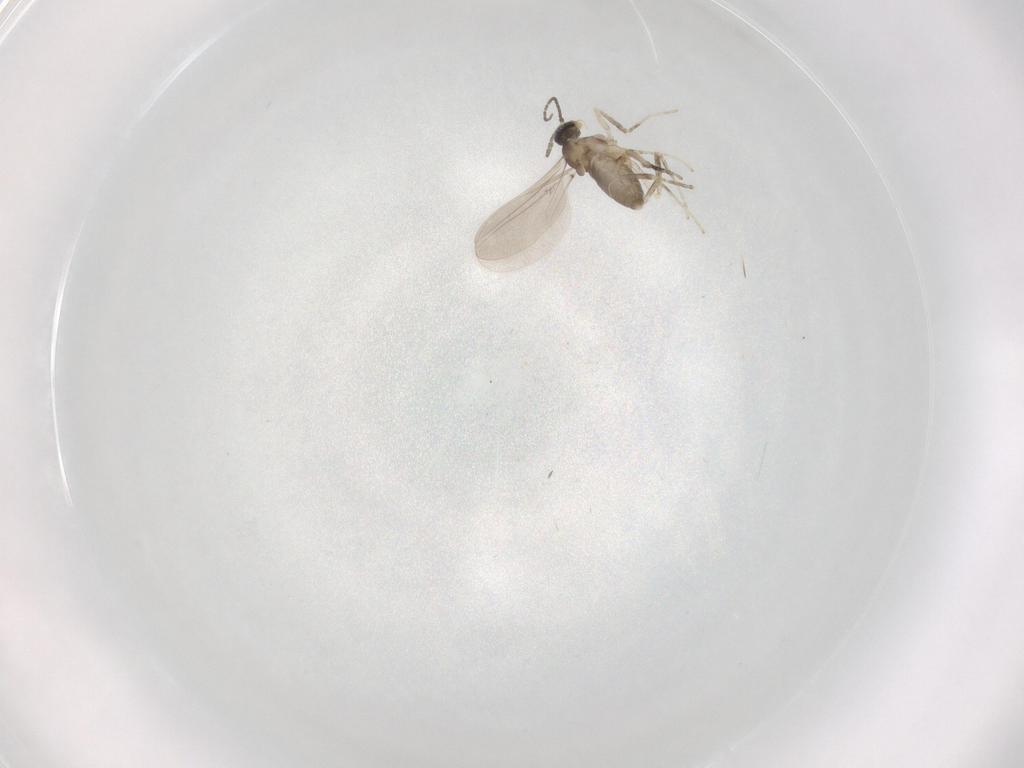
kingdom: Animalia
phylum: Arthropoda
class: Insecta
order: Diptera
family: Cecidomyiidae
